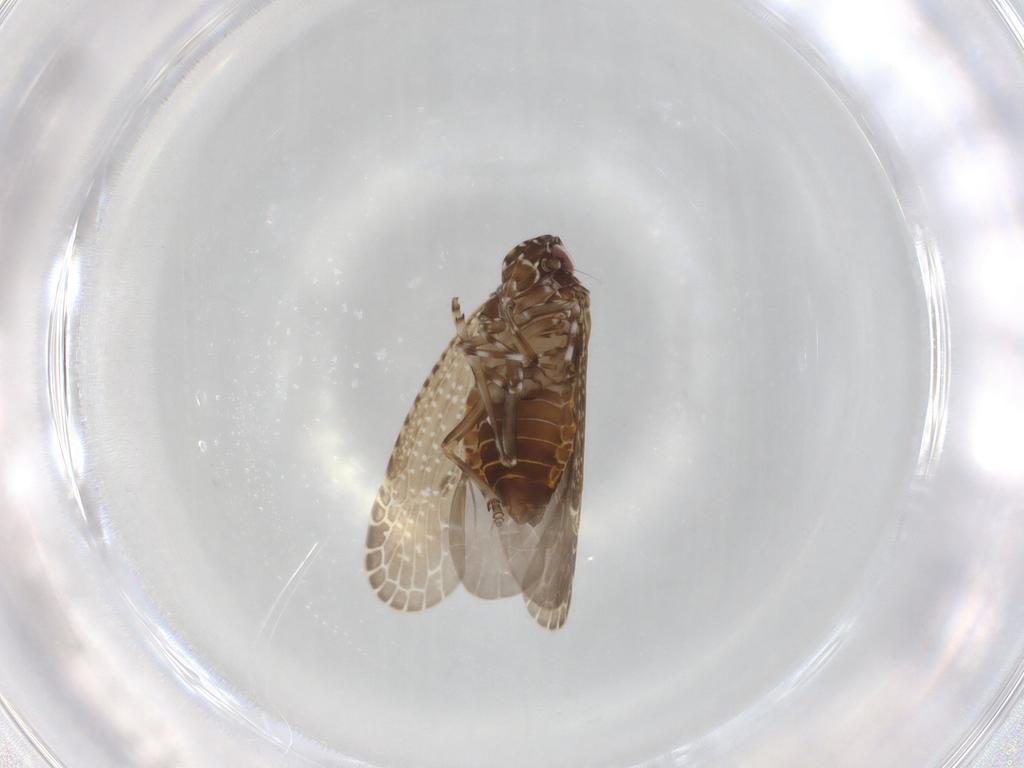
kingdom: Animalia
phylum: Arthropoda
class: Insecta
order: Hemiptera
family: Achilidae
